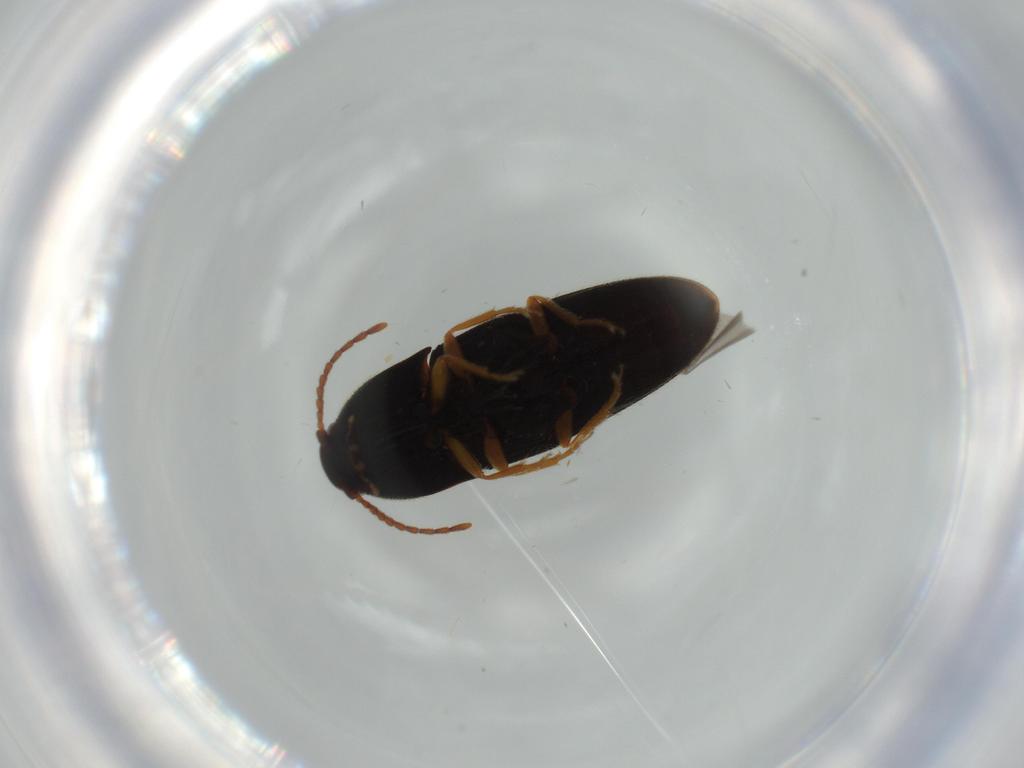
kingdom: Animalia
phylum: Arthropoda
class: Insecta
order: Coleoptera
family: Elateridae
